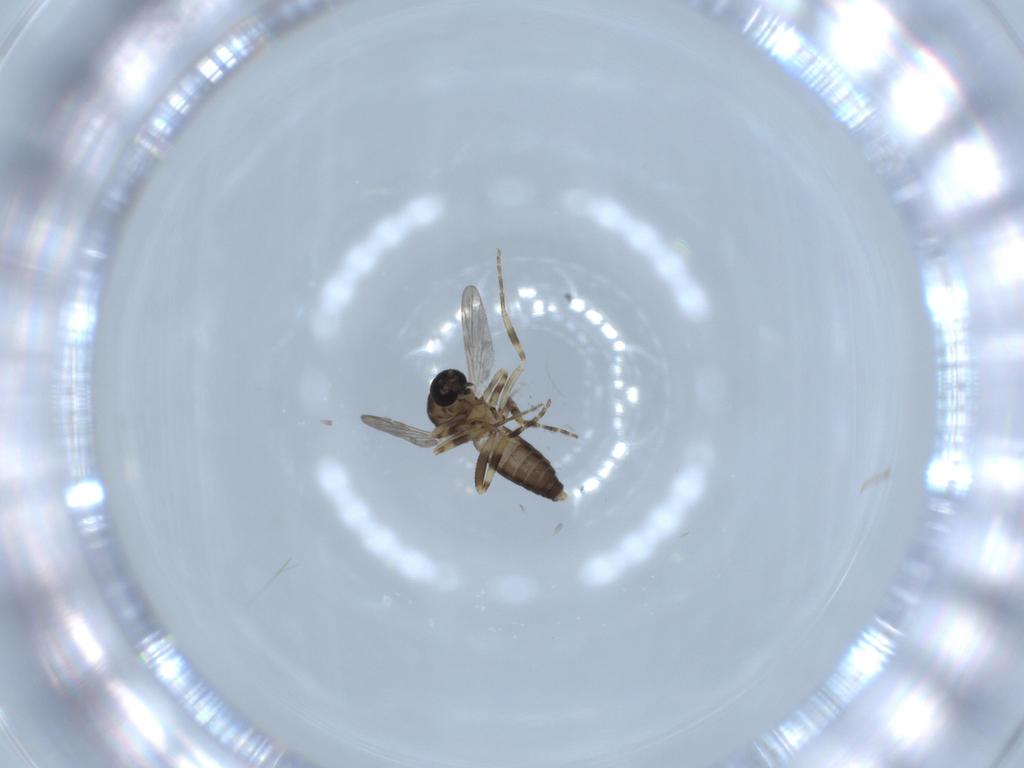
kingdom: Animalia
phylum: Arthropoda
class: Insecta
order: Diptera
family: Ceratopogonidae
